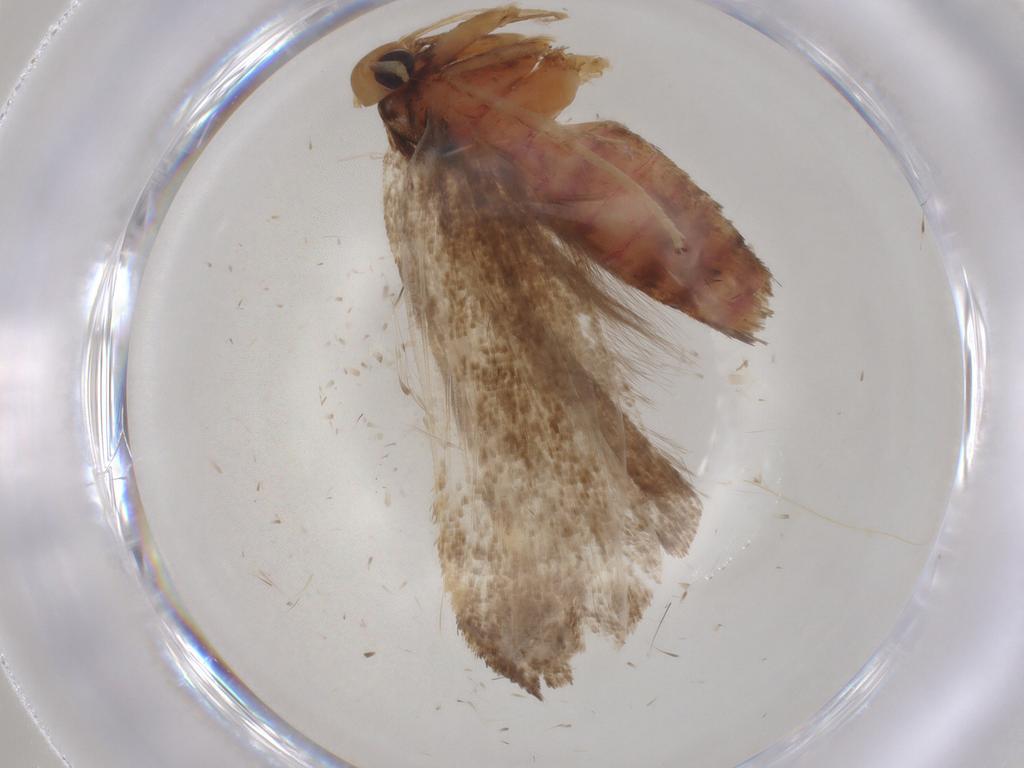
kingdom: Animalia
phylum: Arthropoda
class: Insecta
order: Lepidoptera
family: Lecithoceridae
